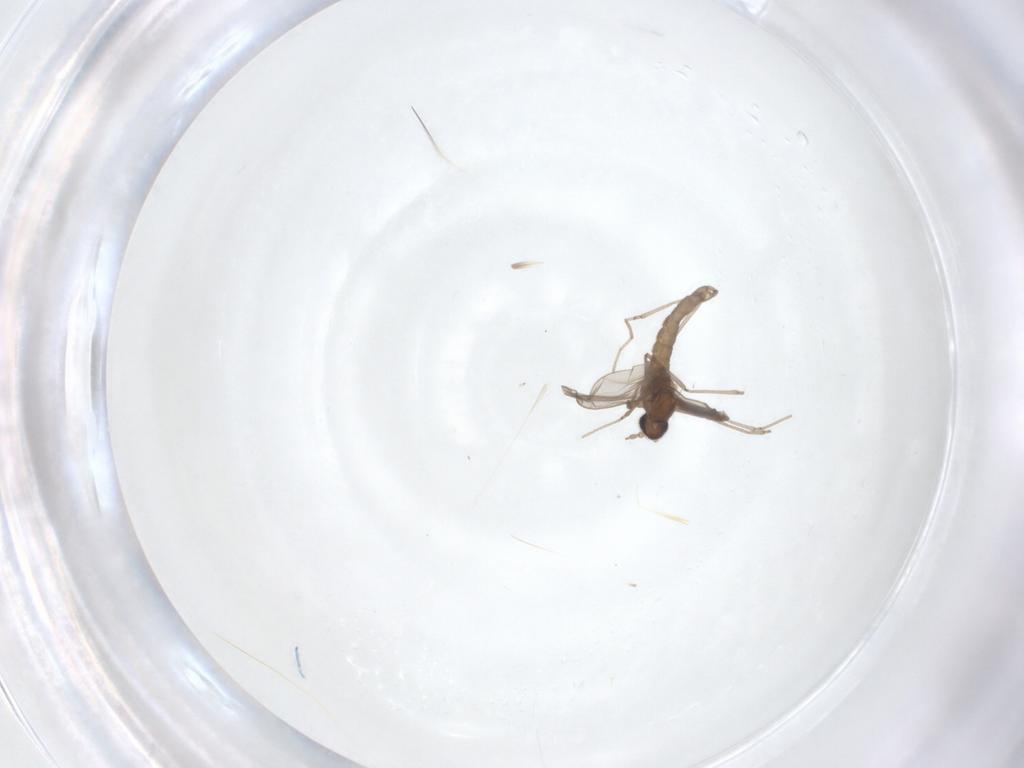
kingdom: Animalia
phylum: Arthropoda
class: Insecta
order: Diptera
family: Cecidomyiidae
